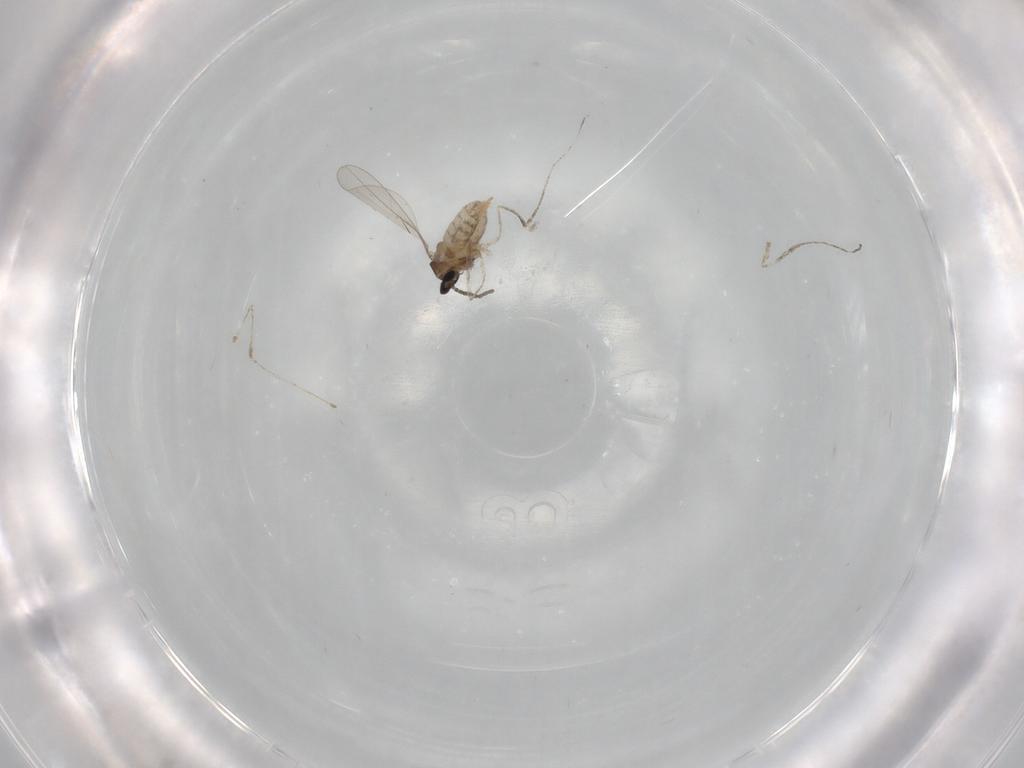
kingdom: Animalia
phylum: Arthropoda
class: Insecta
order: Diptera
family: Cecidomyiidae
